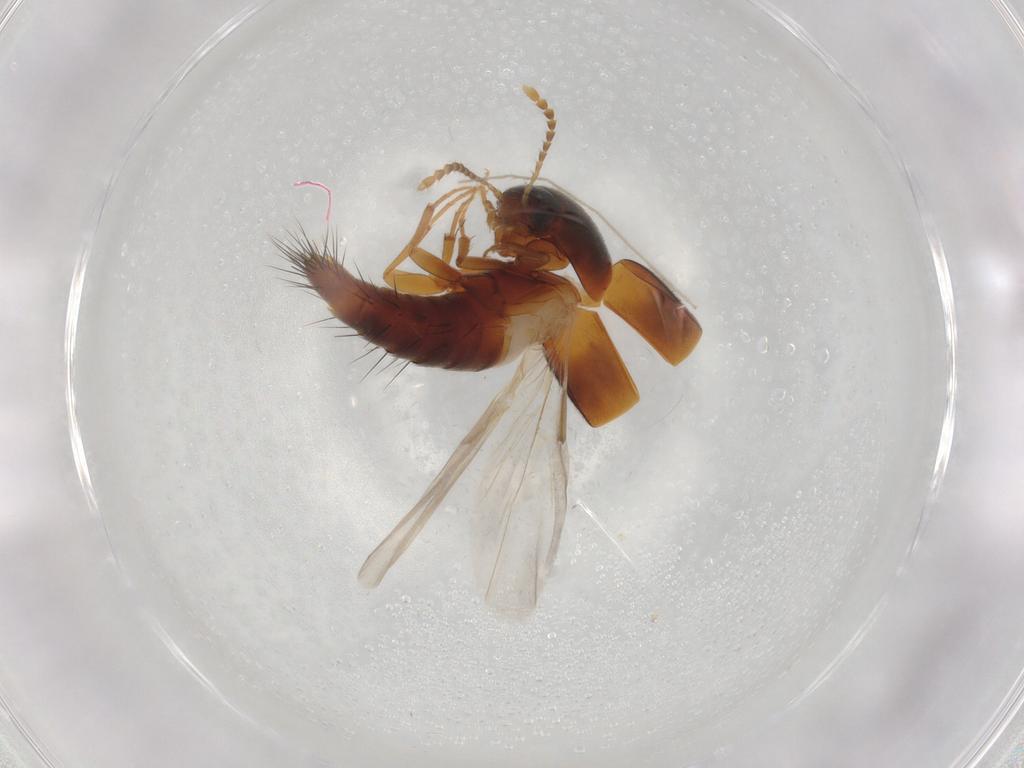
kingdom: Animalia
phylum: Arthropoda
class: Insecta
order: Coleoptera
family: Staphylinidae
